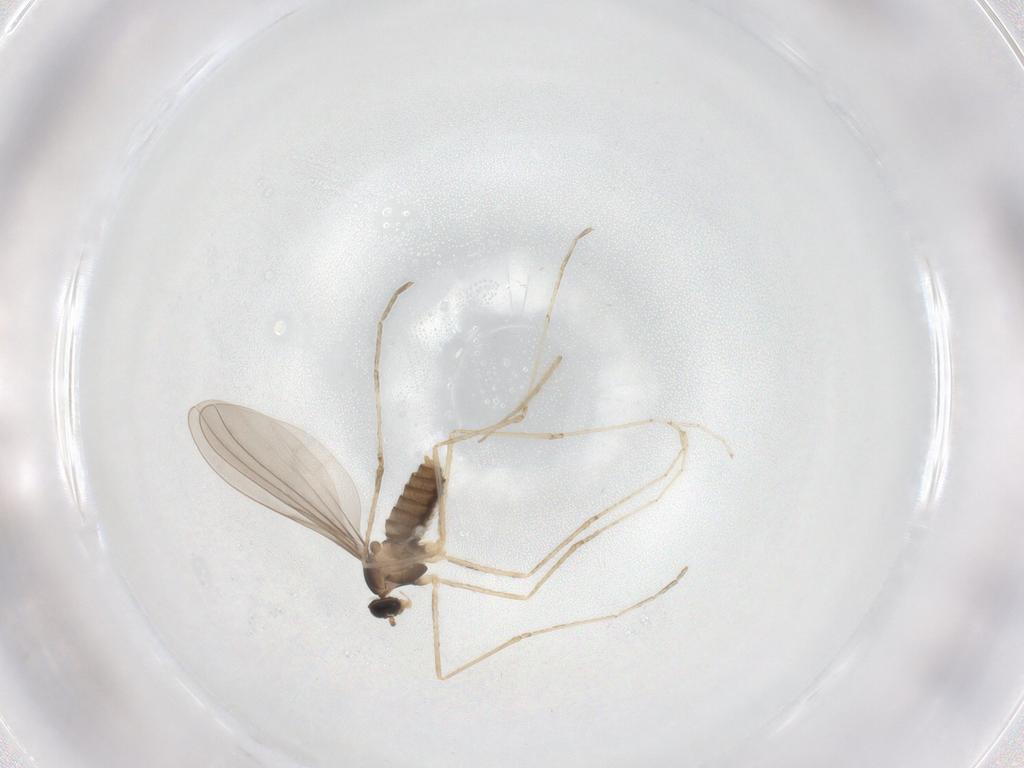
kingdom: Animalia
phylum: Arthropoda
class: Insecta
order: Diptera
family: Cecidomyiidae
